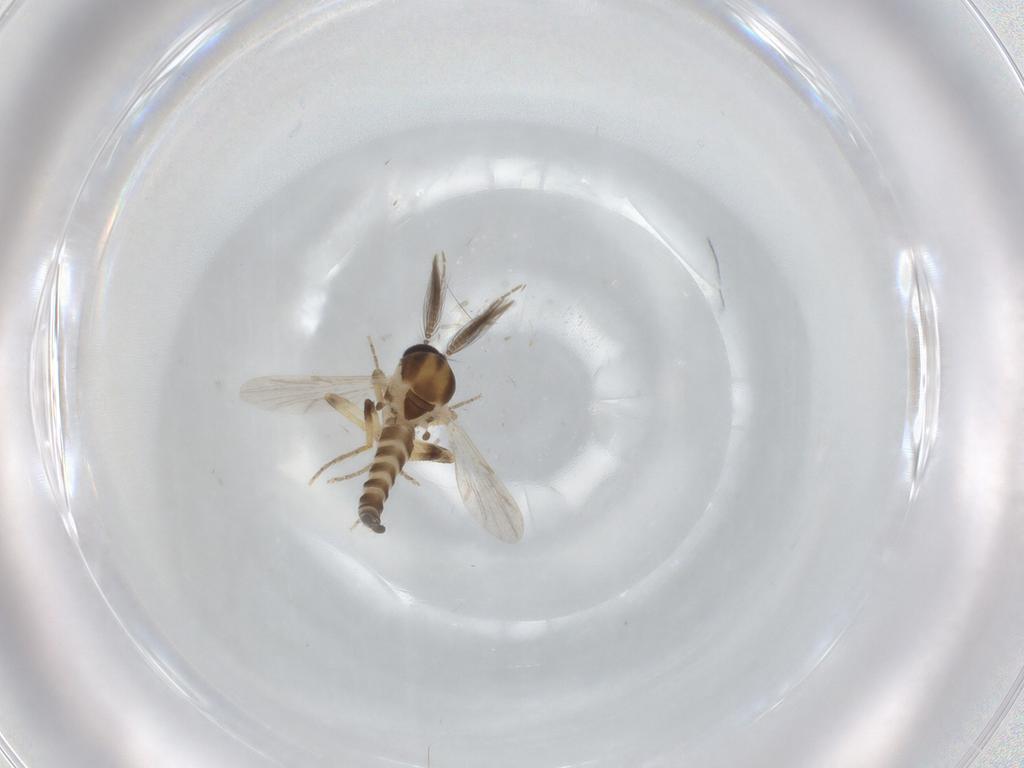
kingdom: Animalia
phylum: Arthropoda
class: Insecta
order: Diptera
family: Ceratopogonidae
